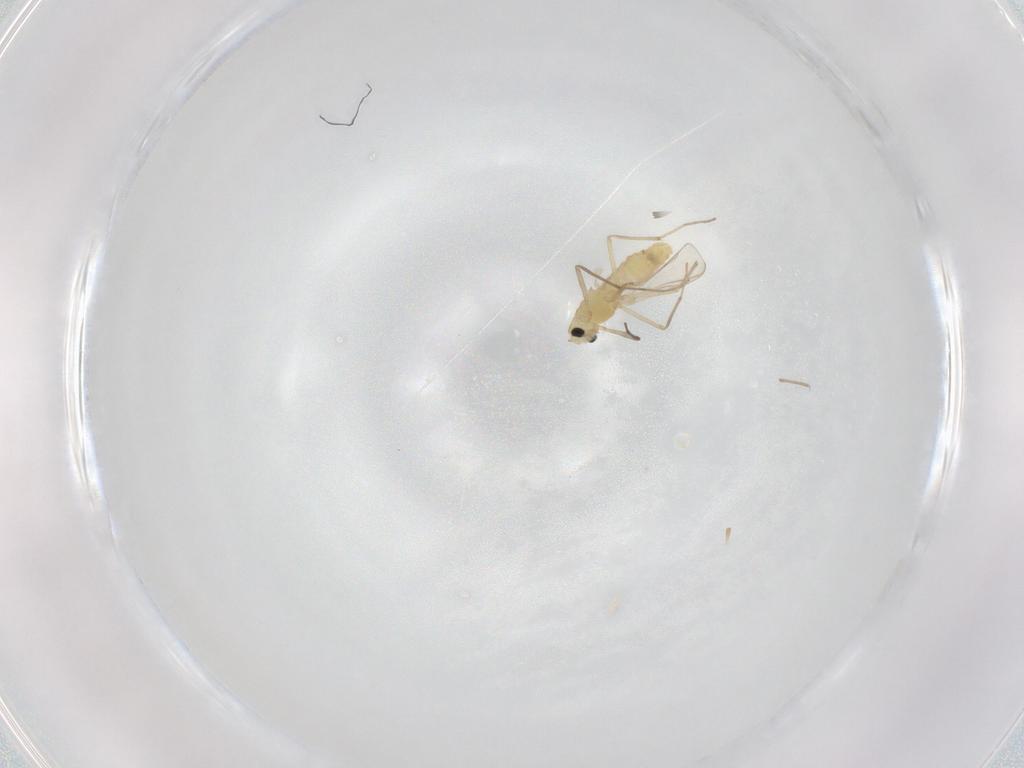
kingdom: Animalia
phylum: Arthropoda
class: Insecta
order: Diptera
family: Chironomidae
